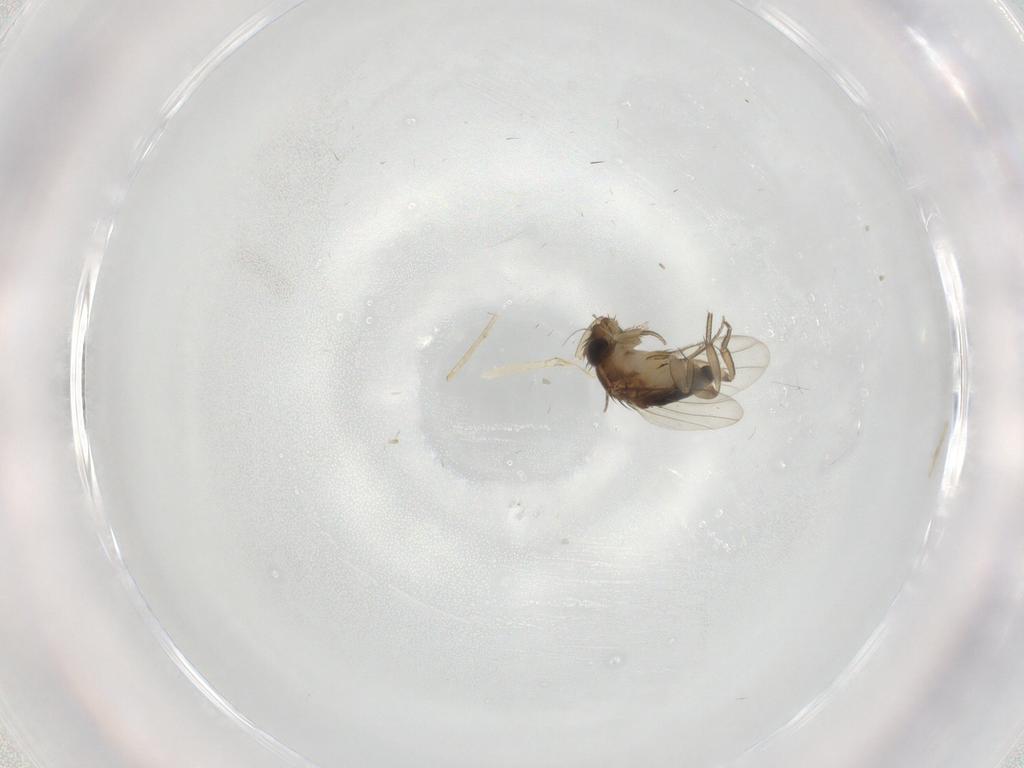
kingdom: Animalia
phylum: Arthropoda
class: Insecta
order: Diptera
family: Phoridae
